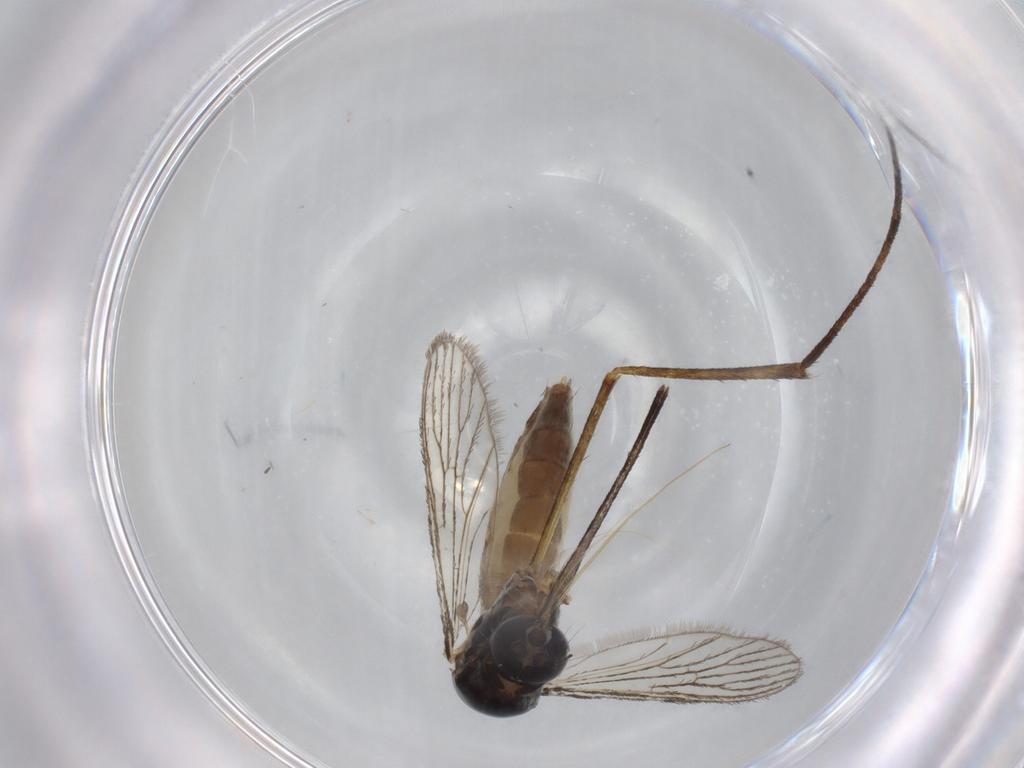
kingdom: Animalia
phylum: Arthropoda
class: Insecta
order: Diptera
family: Culicidae
